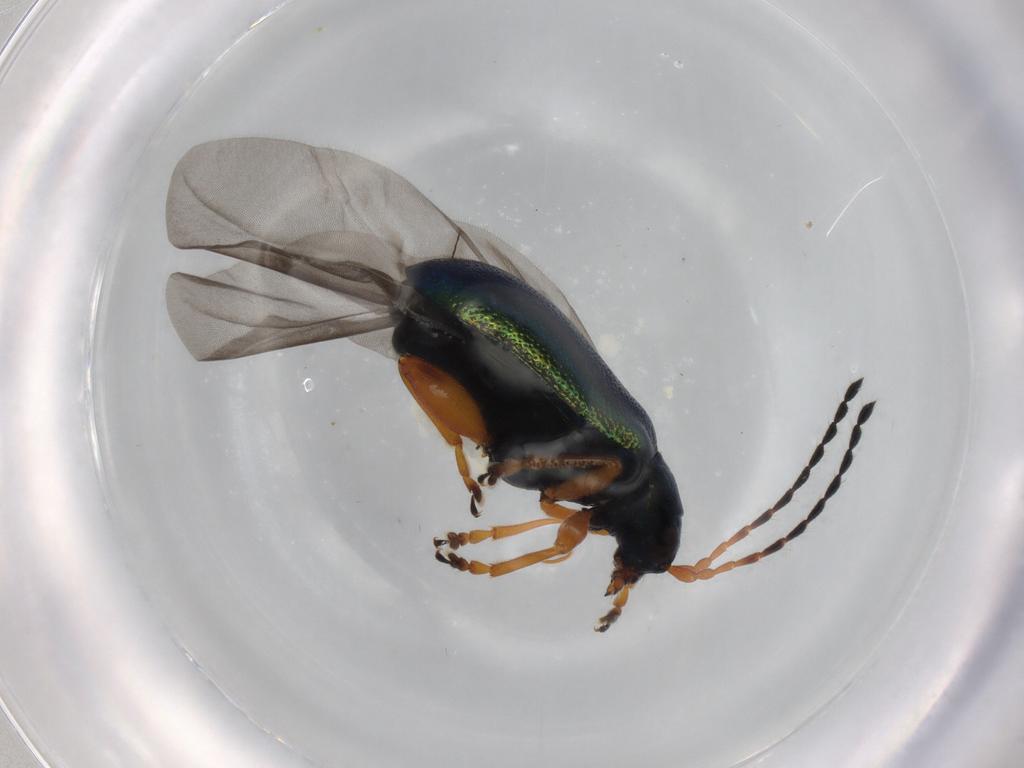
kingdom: Animalia
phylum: Arthropoda
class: Insecta
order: Coleoptera
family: Chrysomelidae
